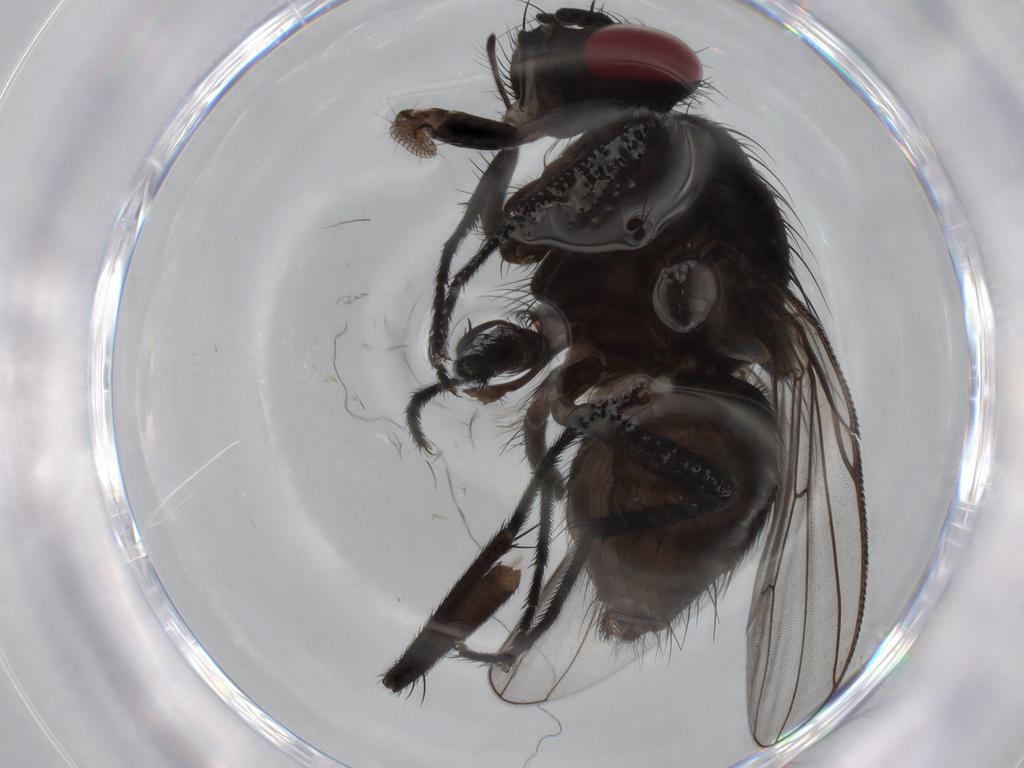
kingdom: Animalia
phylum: Arthropoda
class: Insecta
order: Diptera
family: Muscidae
